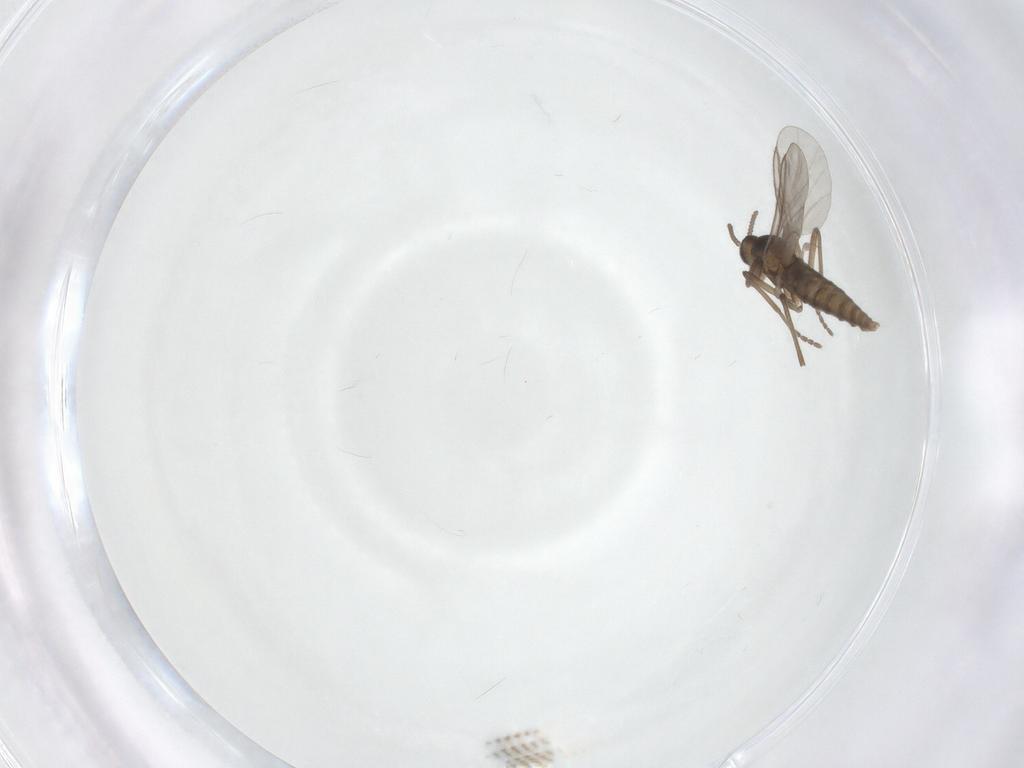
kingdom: Animalia
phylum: Arthropoda
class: Insecta
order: Diptera
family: Cecidomyiidae
